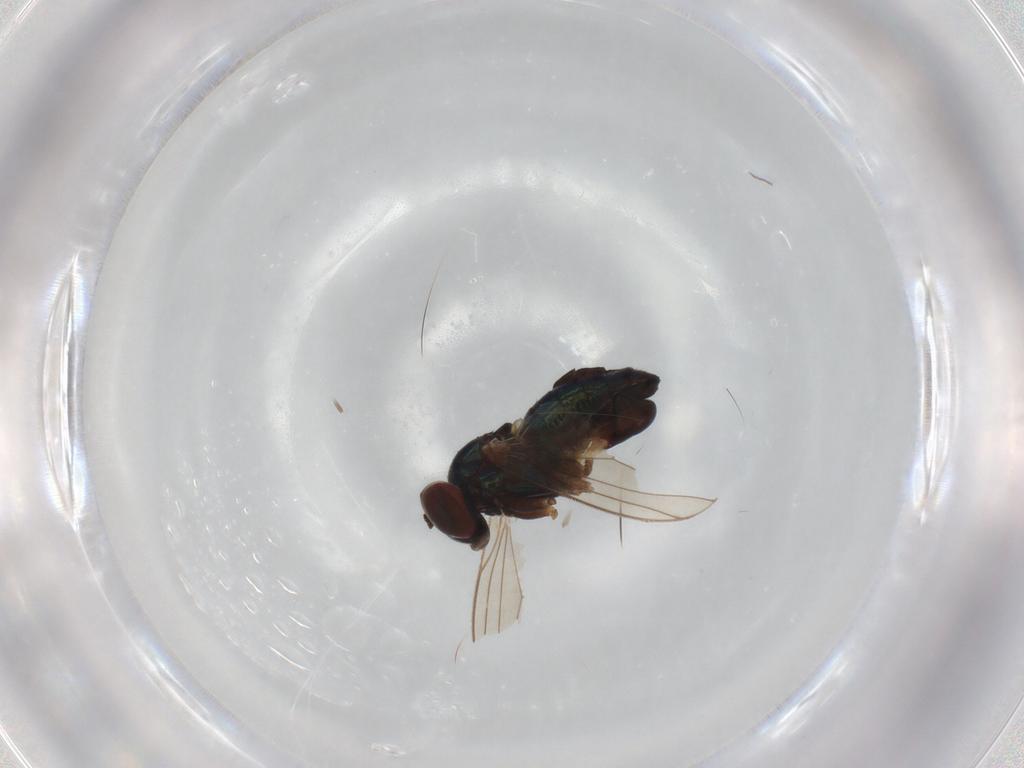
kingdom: Animalia
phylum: Arthropoda
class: Insecta
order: Diptera
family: Dolichopodidae
